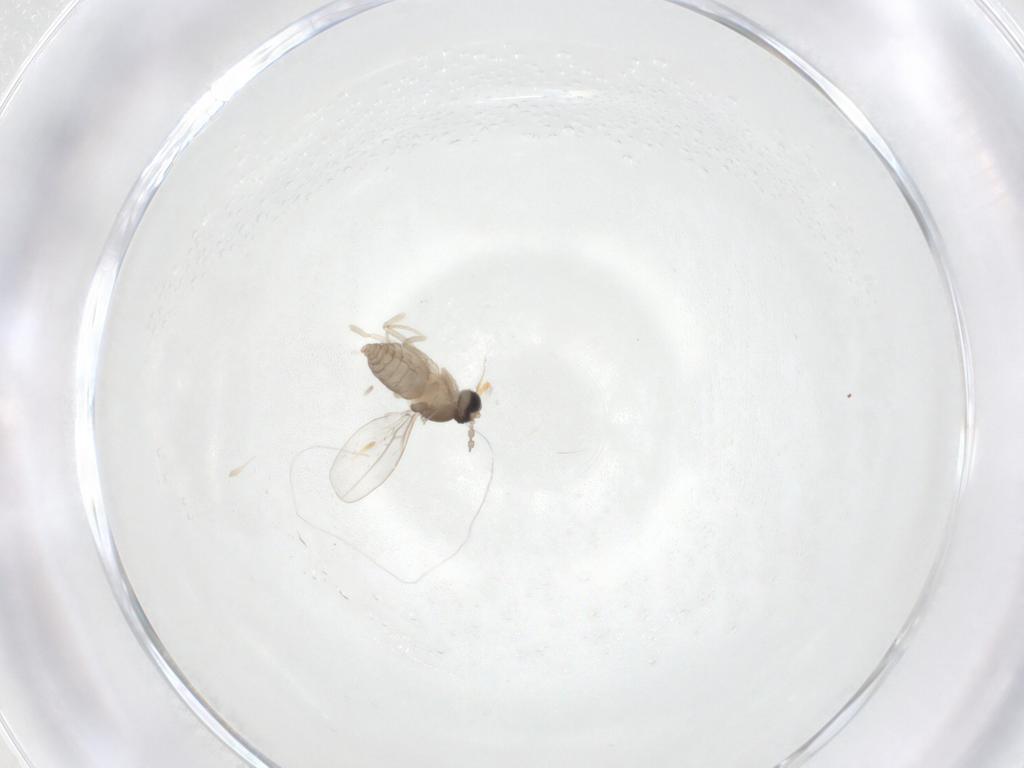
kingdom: Animalia
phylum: Arthropoda
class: Insecta
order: Diptera
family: Cecidomyiidae
